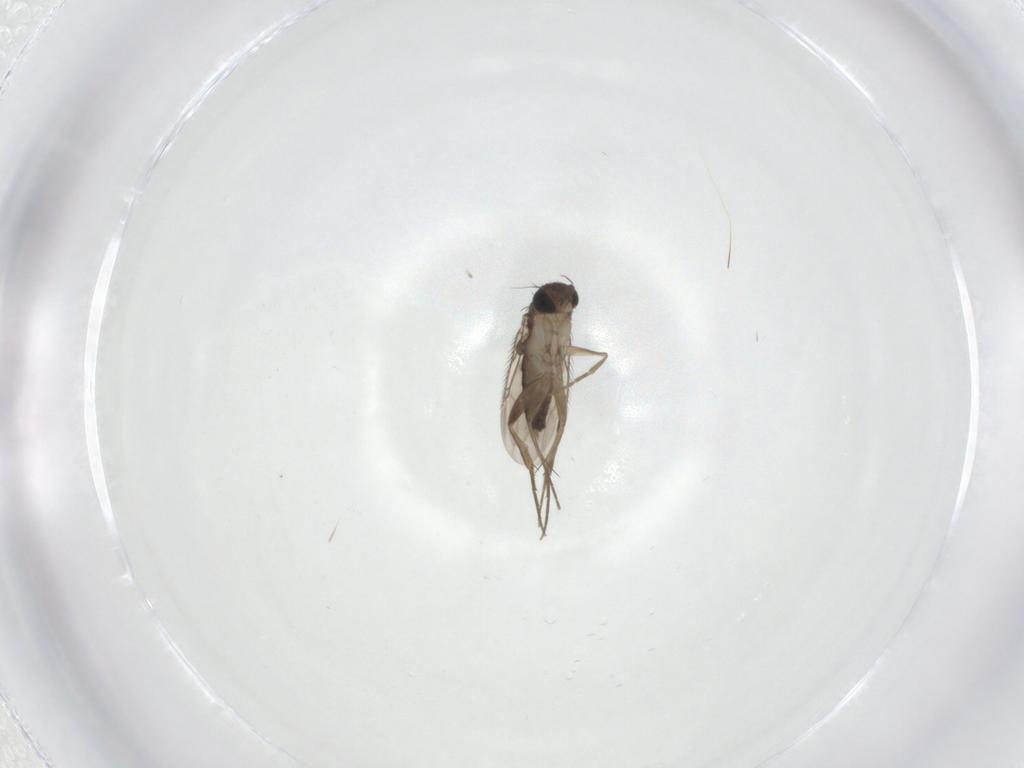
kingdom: Animalia
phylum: Arthropoda
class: Insecta
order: Diptera
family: Phoridae
